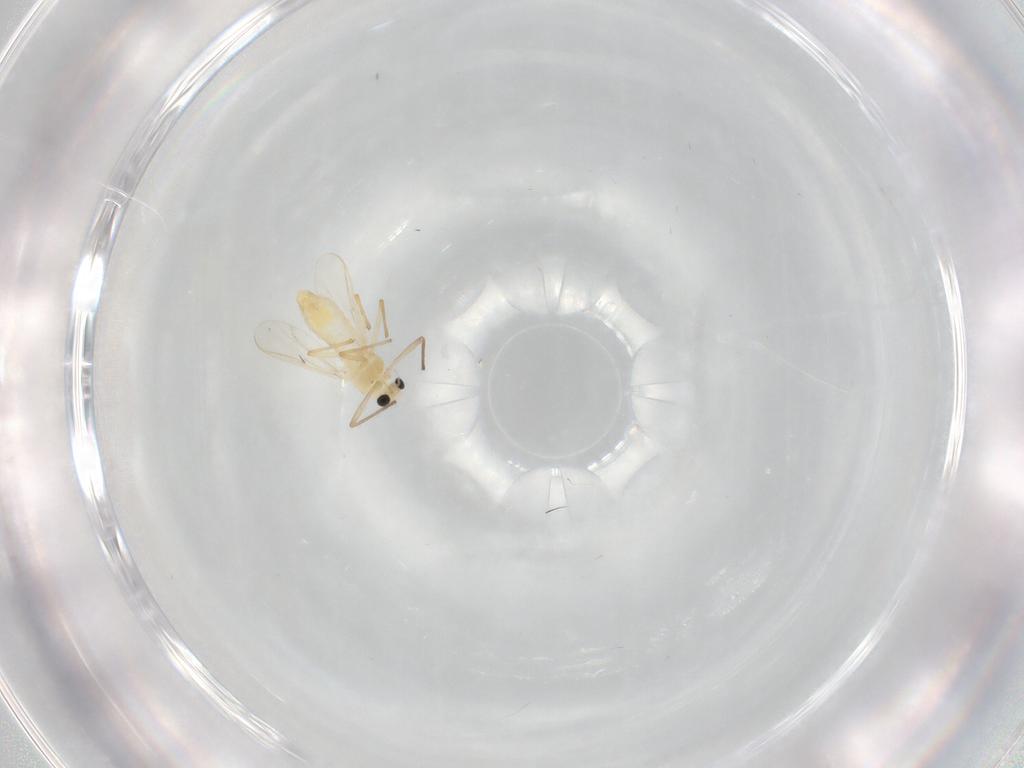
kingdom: Animalia
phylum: Arthropoda
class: Insecta
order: Diptera
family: Chironomidae
